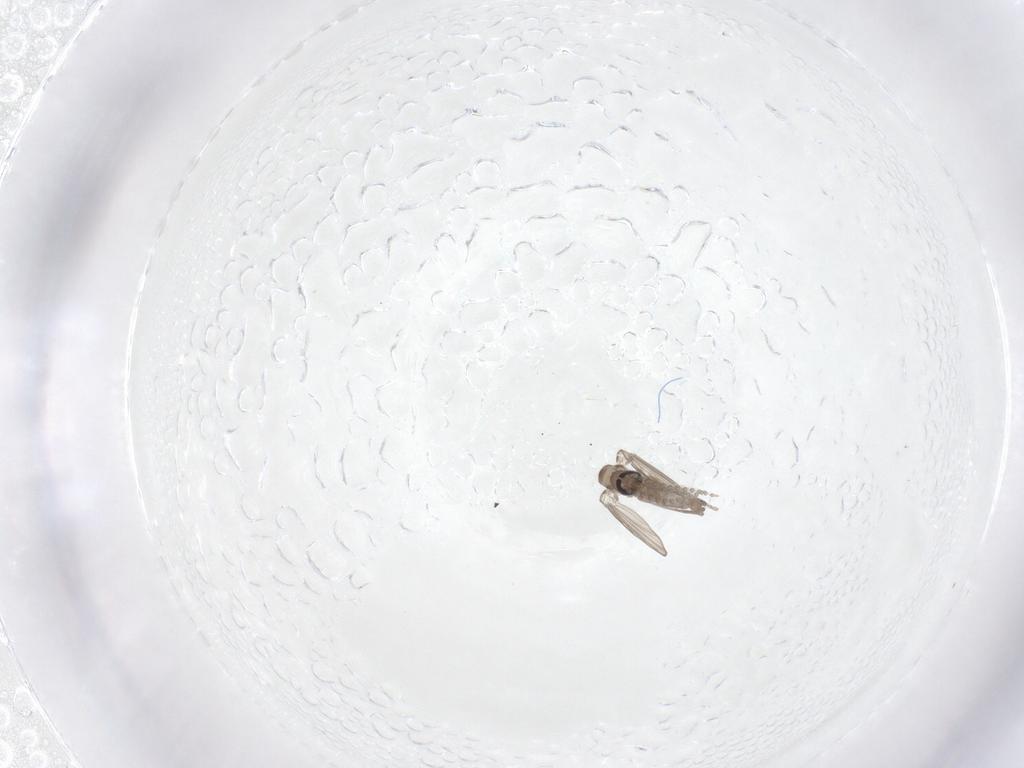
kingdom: Animalia
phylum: Arthropoda
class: Insecta
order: Diptera
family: Psychodidae
